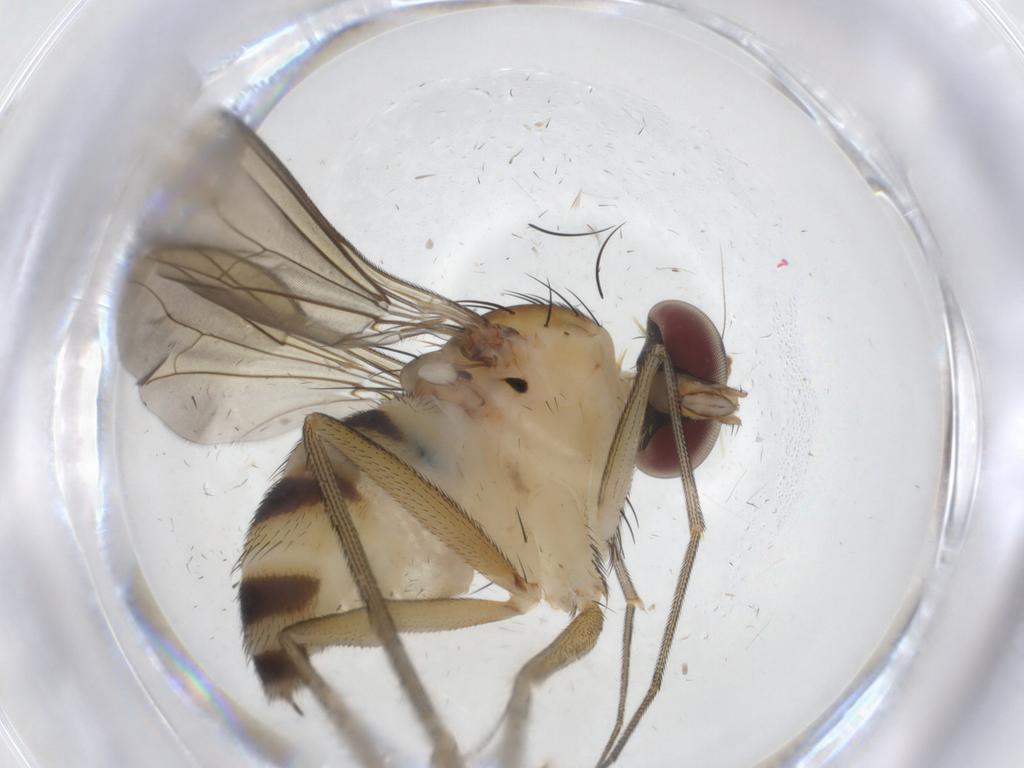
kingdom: Animalia
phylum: Arthropoda
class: Insecta
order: Diptera
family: Dolichopodidae
